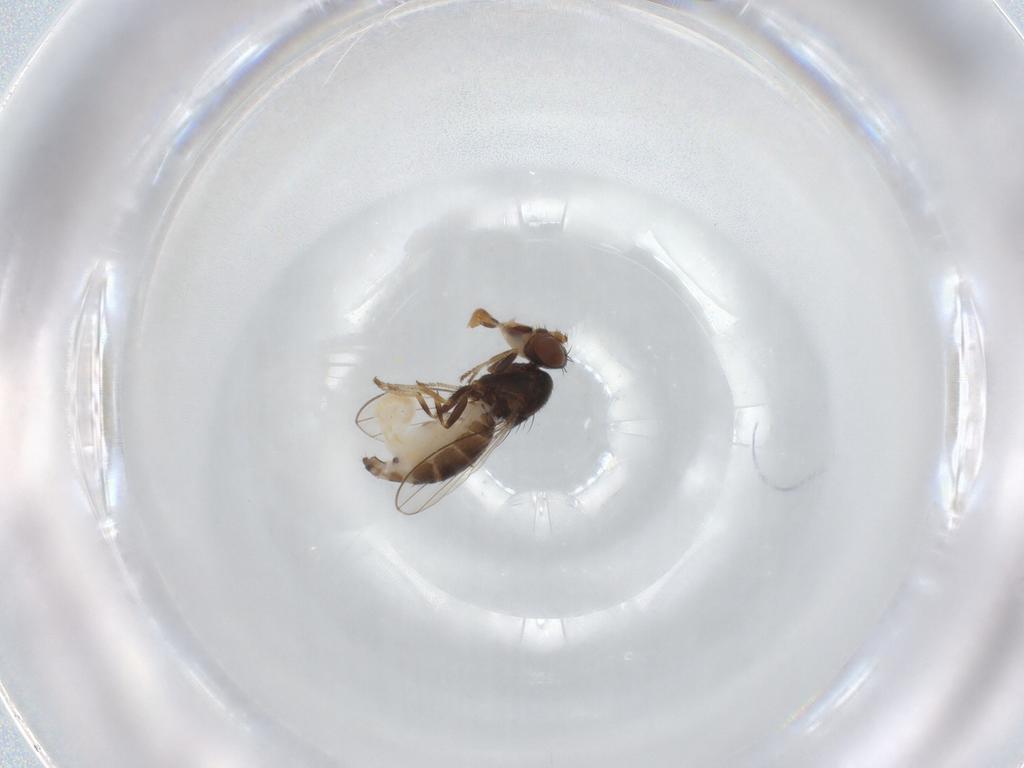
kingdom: Animalia
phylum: Arthropoda
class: Insecta
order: Diptera
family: Ephydridae
